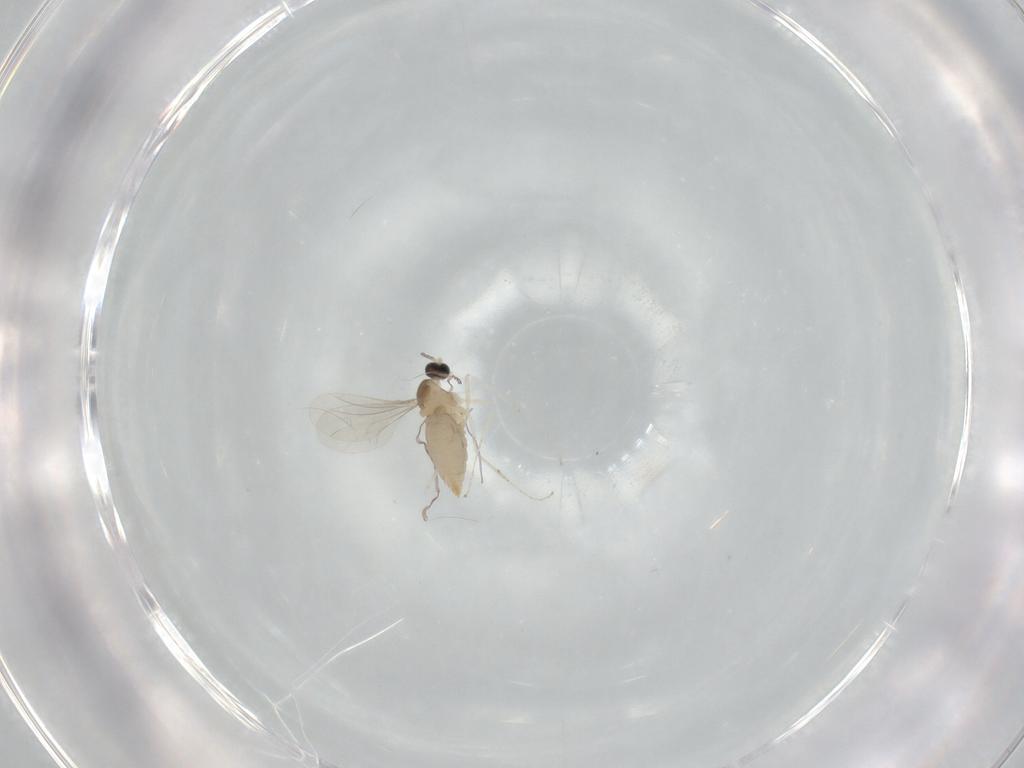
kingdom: Animalia
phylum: Arthropoda
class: Insecta
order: Diptera
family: Cecidomyiidae
